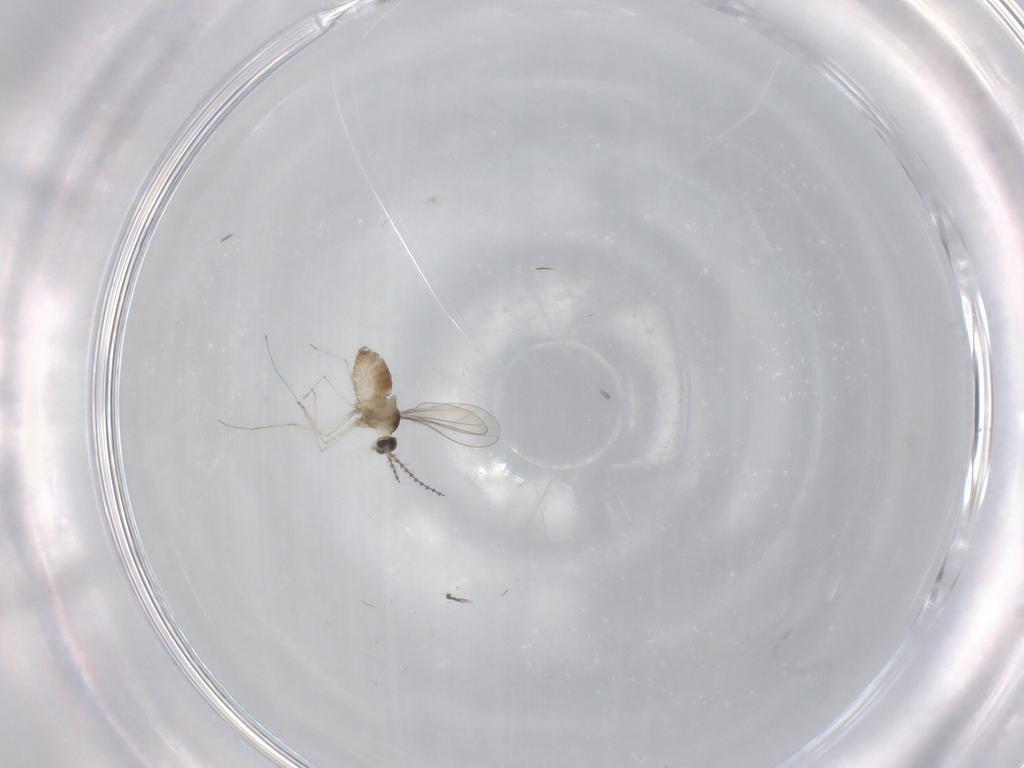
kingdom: Animalia
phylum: Arthropoda
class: Insecta
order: Diptera
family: Cecidomyiidae
